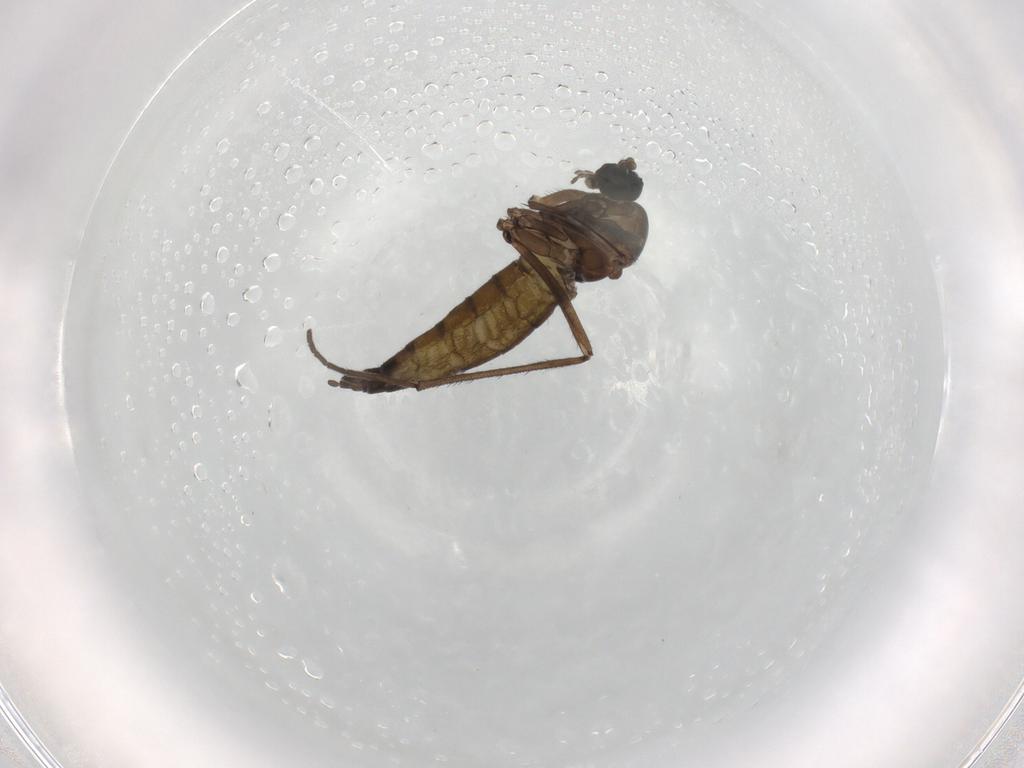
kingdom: Animalia
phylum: Arthropoda
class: Insecta
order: Diptera
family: Sciaridae
